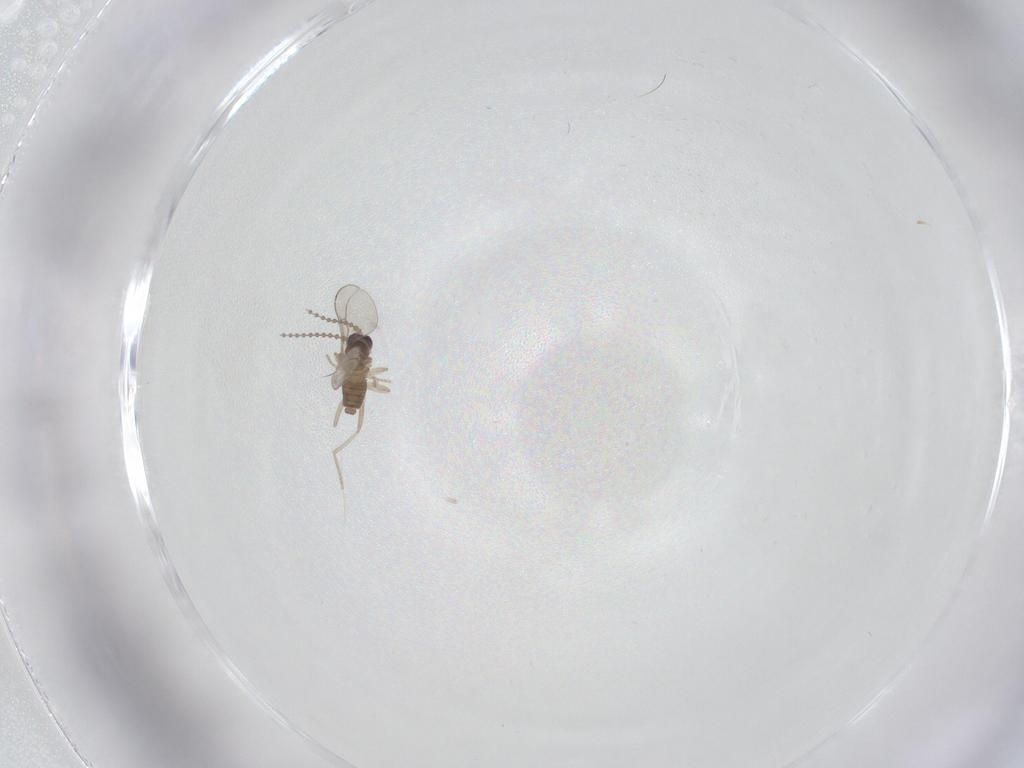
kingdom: Animalia
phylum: Arthropoda
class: Insecta
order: Diptera
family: Cecidomyiidae
